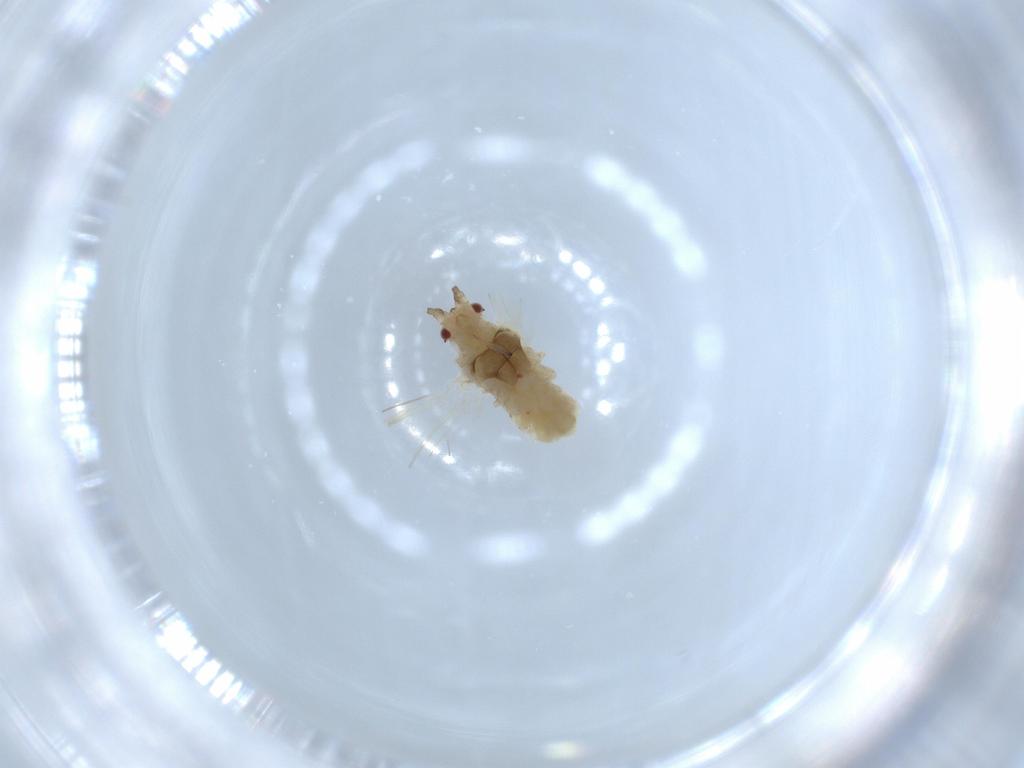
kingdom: Animalia
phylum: Arthropoda
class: Insecta
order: Hemiptera
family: Aphididae
